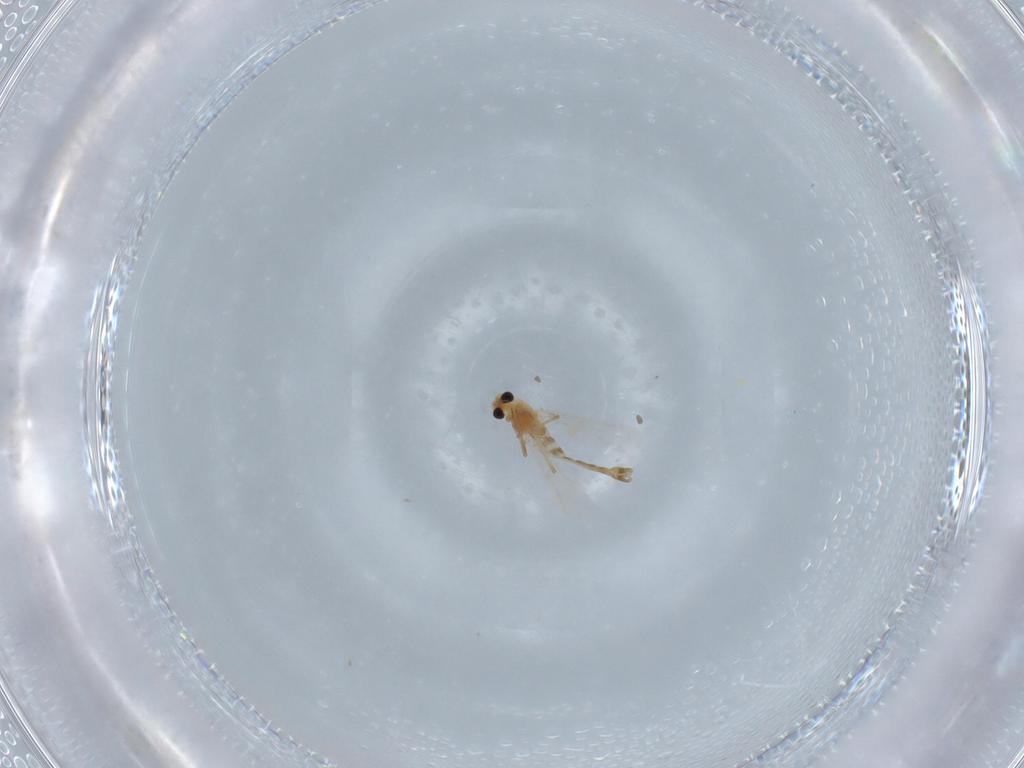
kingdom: Animalia
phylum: Arthropoda
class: Insecta
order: Diptera
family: Chironomidae
